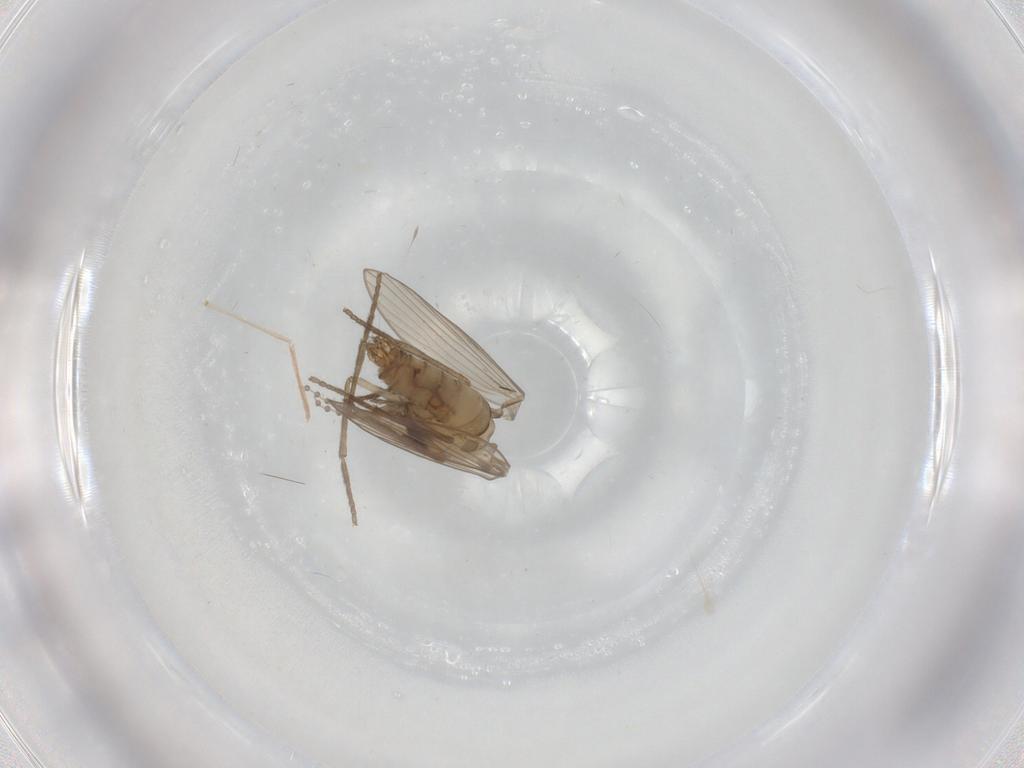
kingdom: Animalia
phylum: Arthropoda
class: Insecta
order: Diptera
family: Psychodidae
